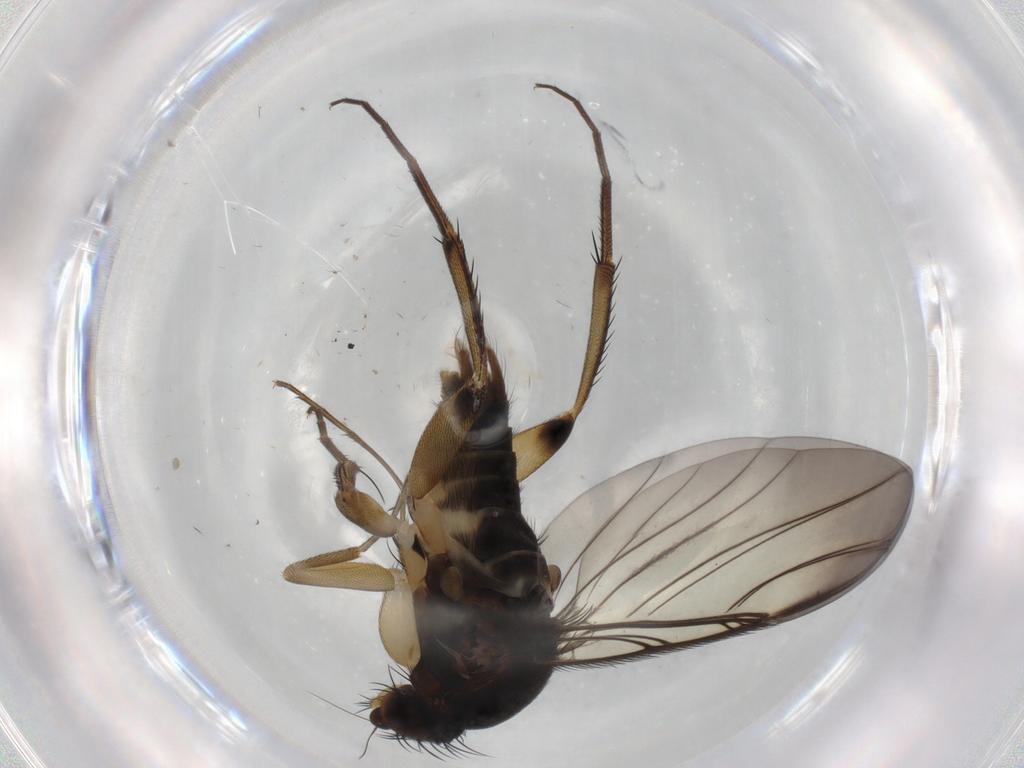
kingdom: Animalia
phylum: Arthropoda
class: Insecta
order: Diptera
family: Phoridae
